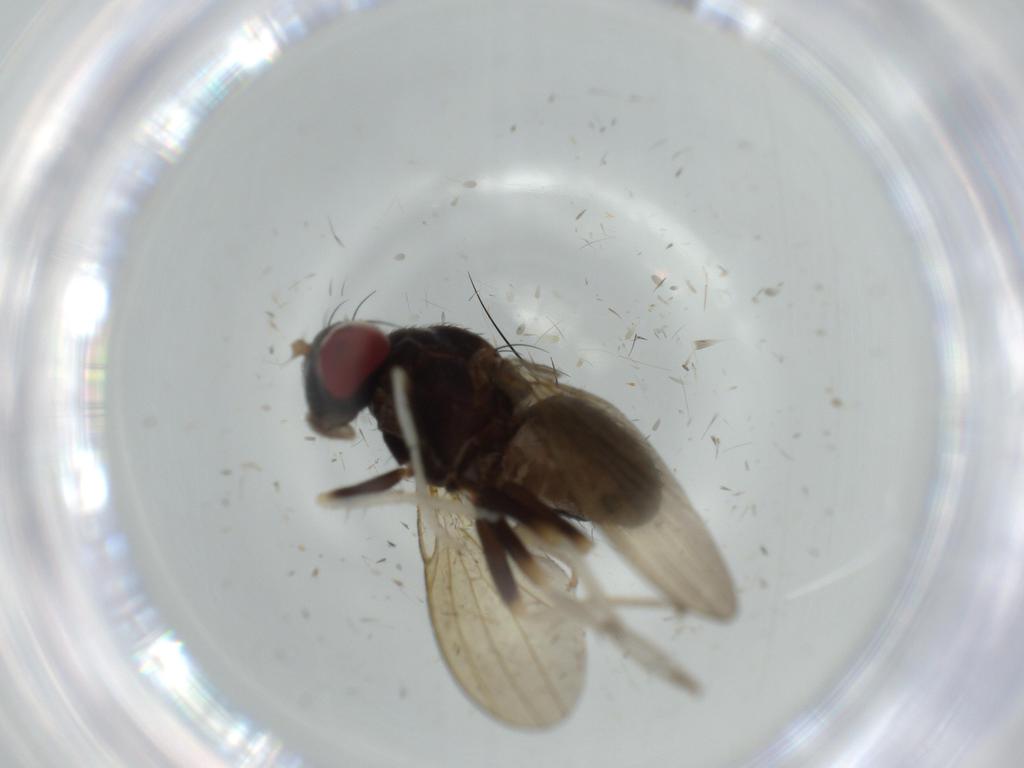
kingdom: Animalia
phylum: Arthropoda
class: Insecta
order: Diptera
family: Lauxaniidae
